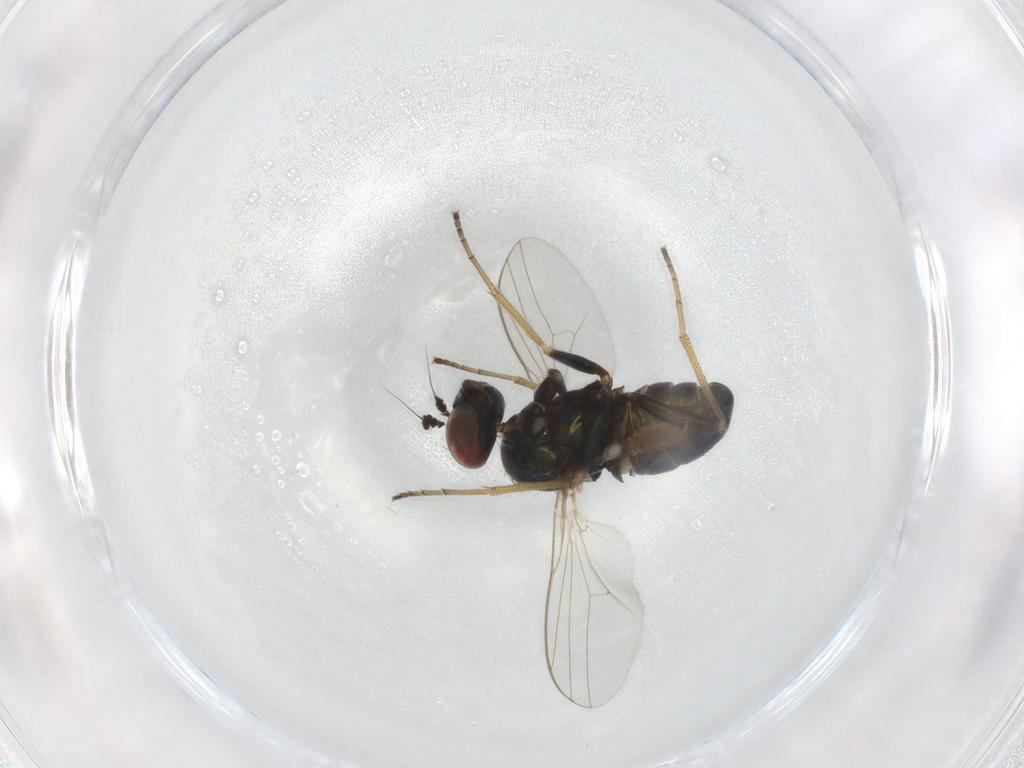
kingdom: Animalia
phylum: Arthropoda
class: Insecta
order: Diptera
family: Dolichopodidae
